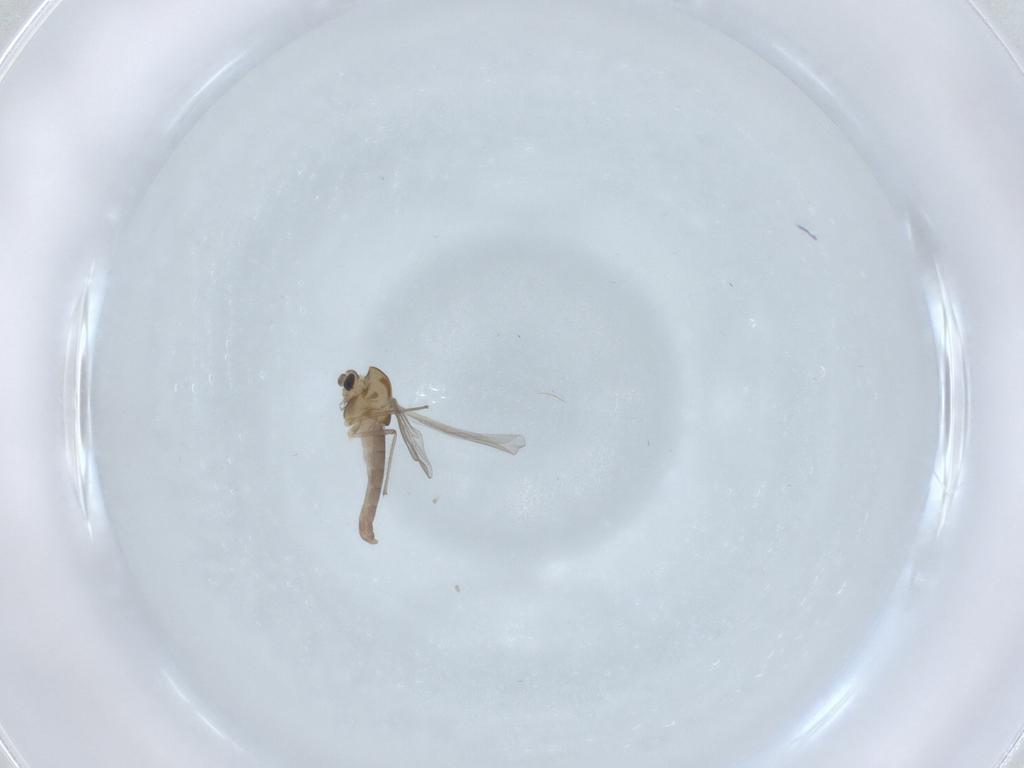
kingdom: Animalia
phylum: Arthropoda
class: Insecta
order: Diptera
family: Chironomidae
